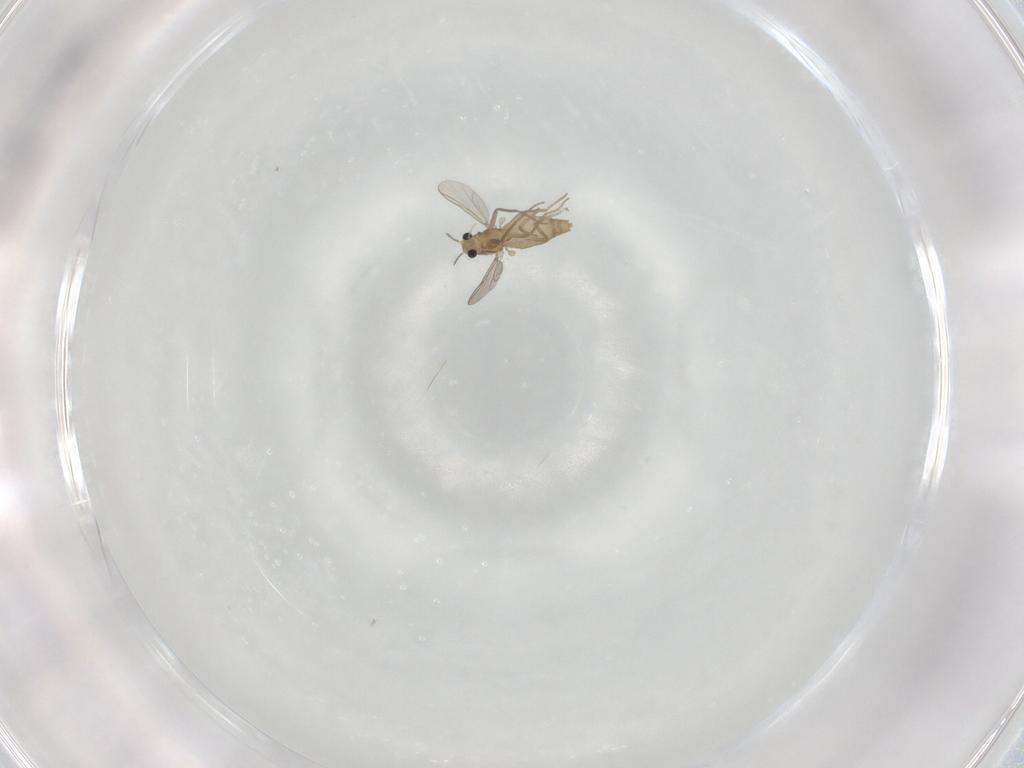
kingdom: Animalia
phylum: Arthropoda
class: Insecta
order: Diptera
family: Chironomidae
